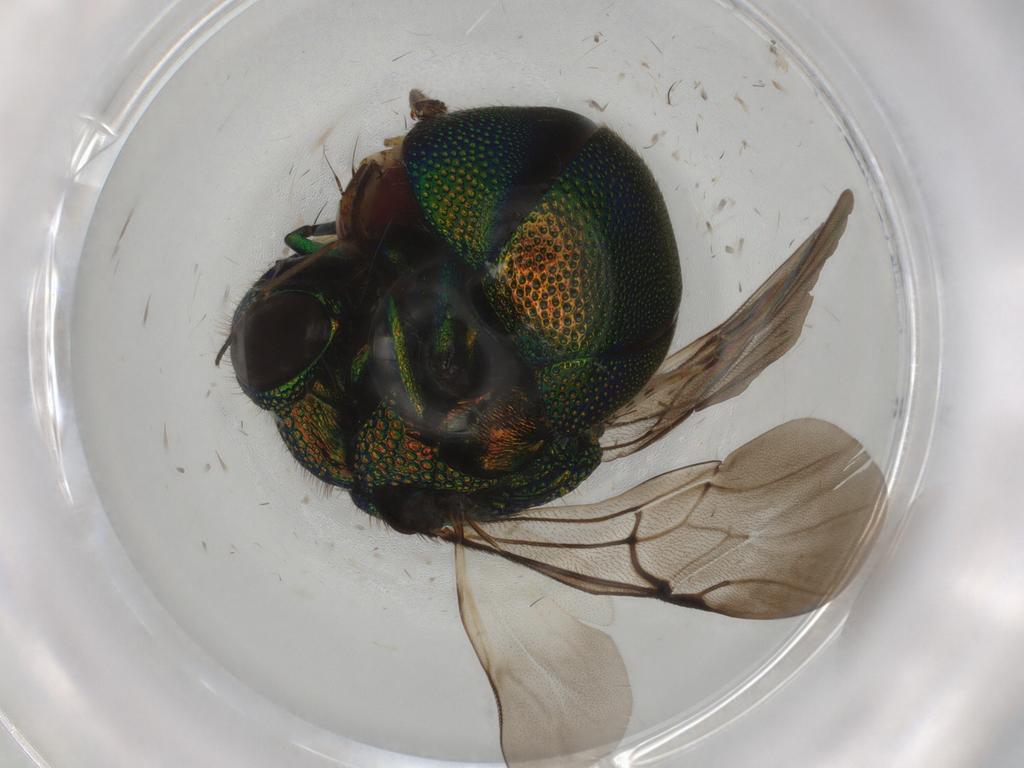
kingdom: Animalia
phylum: Arthropoda
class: Insecta
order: Hymenoptera
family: Chrysididae
